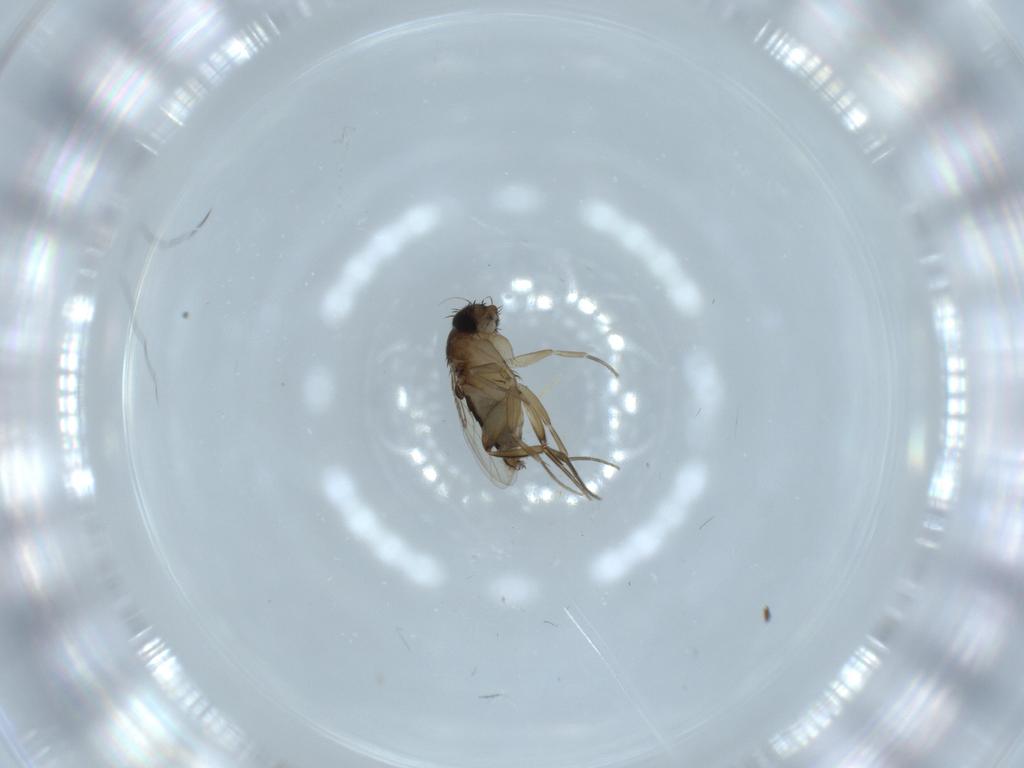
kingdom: Animalia
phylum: Arthropoda
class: Insecta
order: Diptera
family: Phoridae
